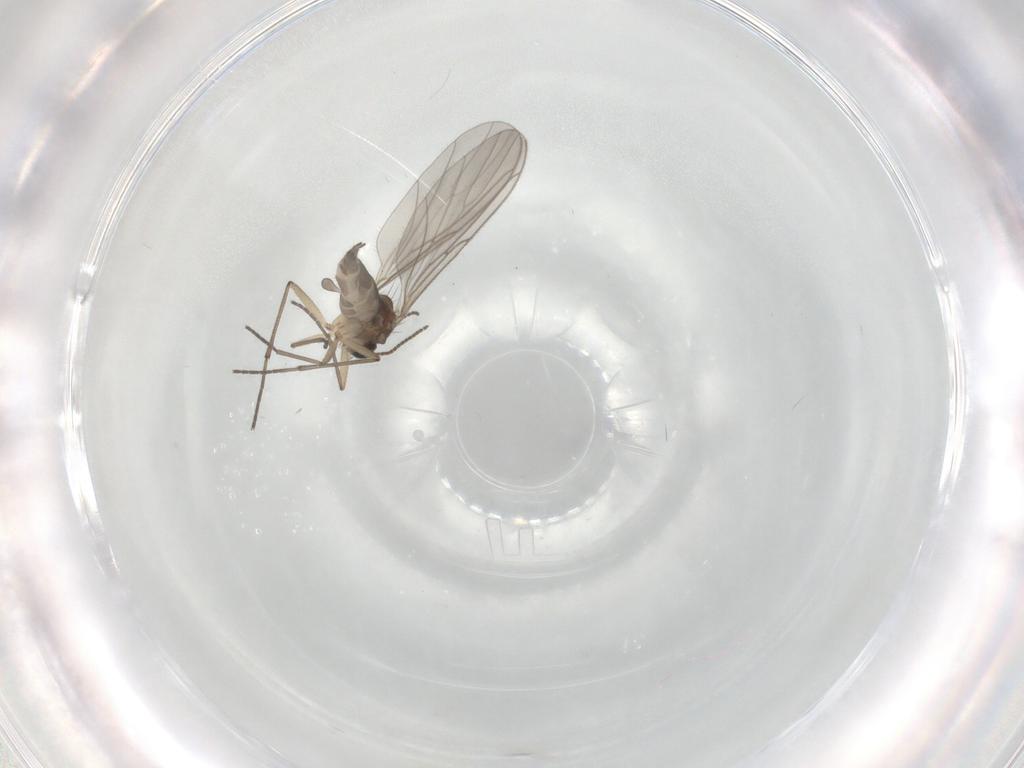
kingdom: Animalia
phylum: Arthropoda
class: Insecta
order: Diptera
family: Sciaridae
